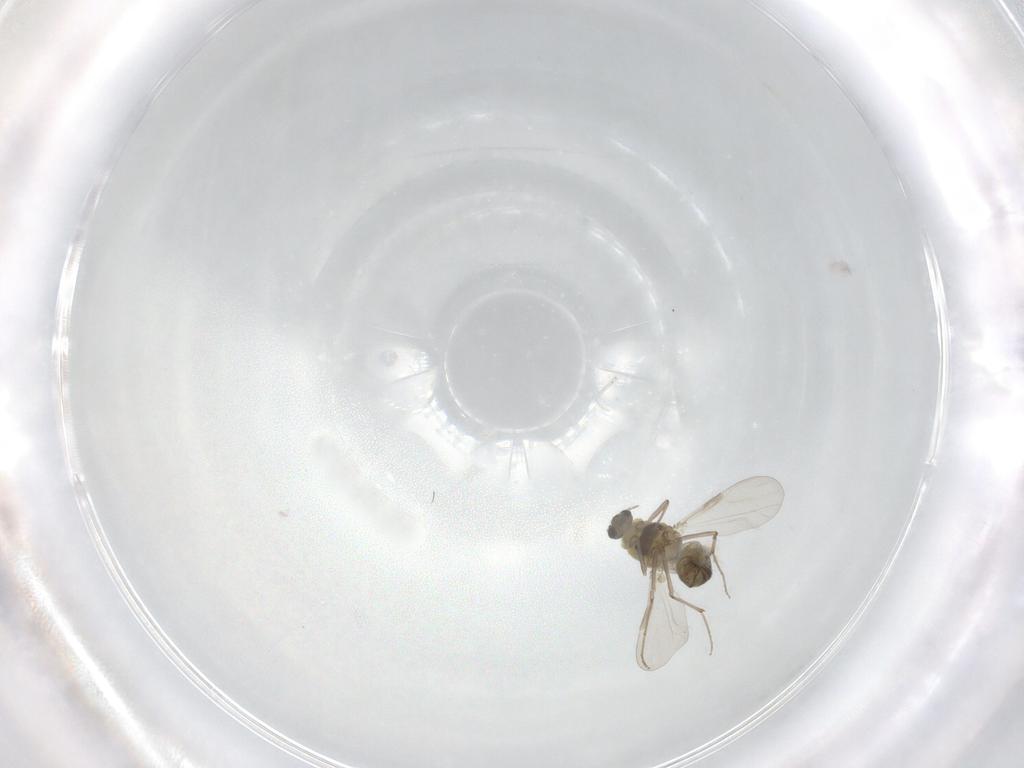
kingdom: Animalia
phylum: Arthropoda
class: Insecta
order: Diptera
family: Chironomidae
